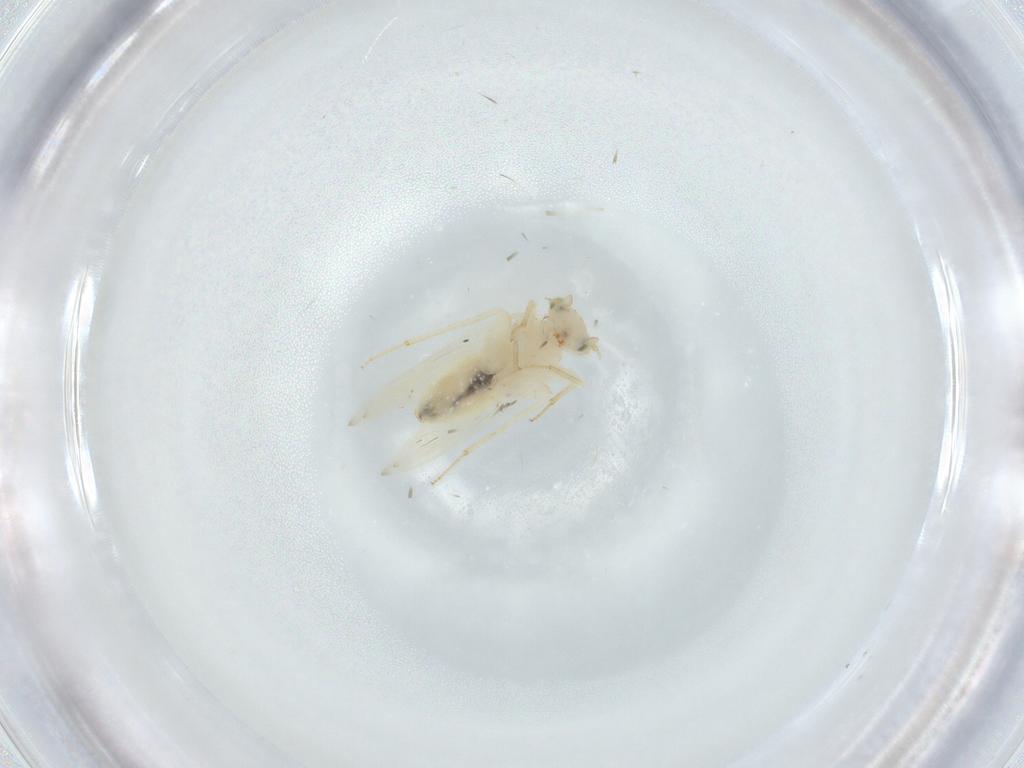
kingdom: Animalia
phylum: Arthropoda
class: Insecta
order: Psocodea
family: Lepidopsocidae
